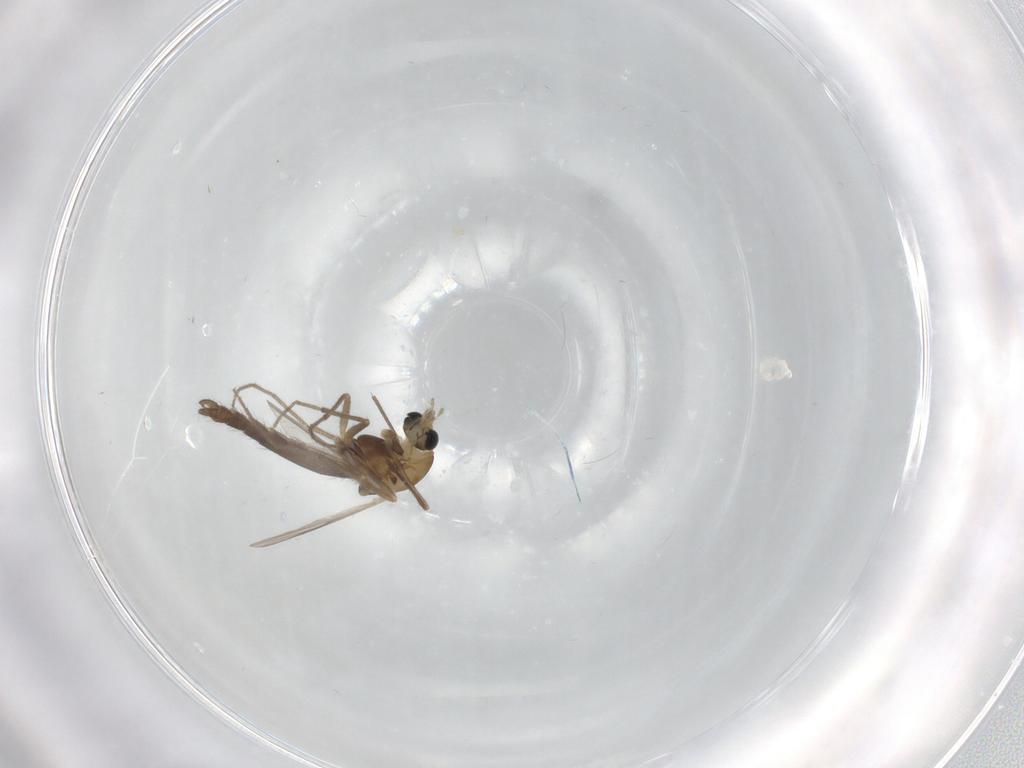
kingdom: Animalia
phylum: Arthropoda
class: Insecta
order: Diptera
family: Chironomidae
